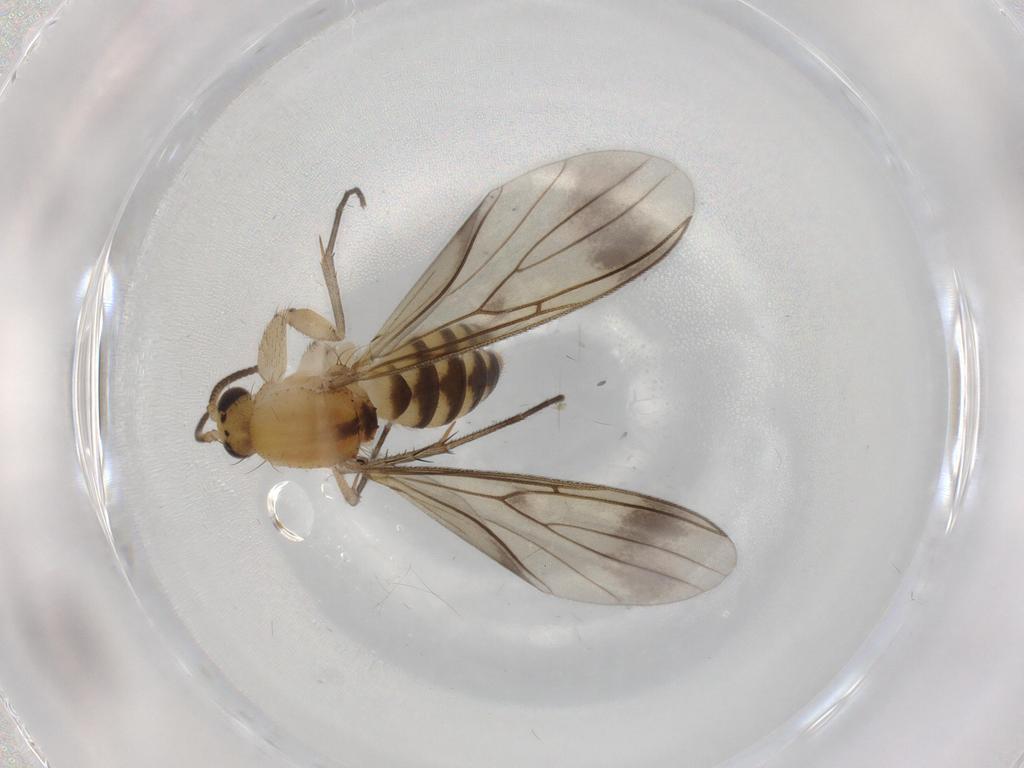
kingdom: Animalia
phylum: Arthropoda
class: Insecta
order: Diptera
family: Mycetophilidae
